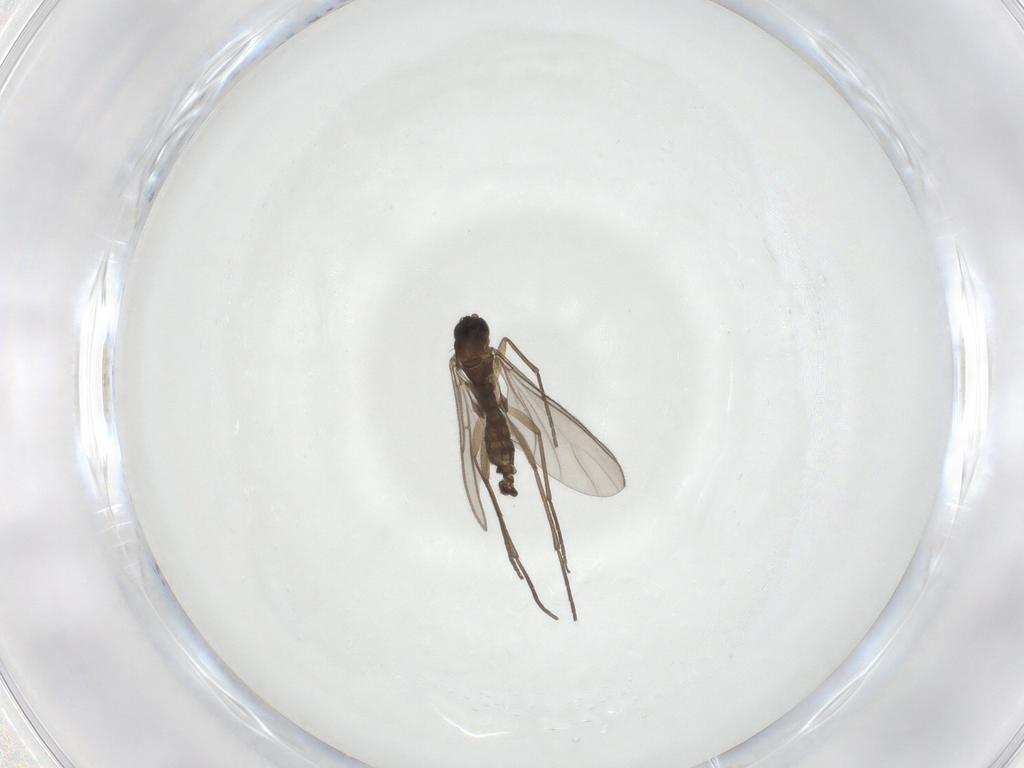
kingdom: Animalia
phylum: Arthropoda
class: Insecta
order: Diptera
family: Sciaridae
